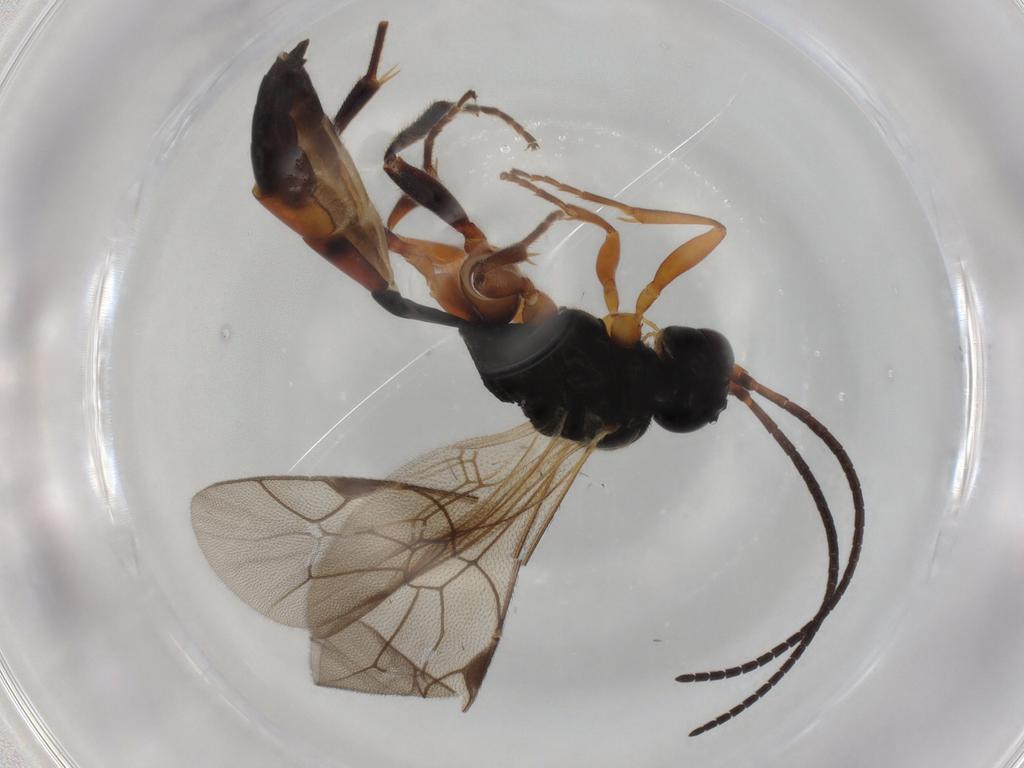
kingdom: Animalia
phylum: Arthropoda
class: Insecta
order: Hymenoptera
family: Ichneumonidae
